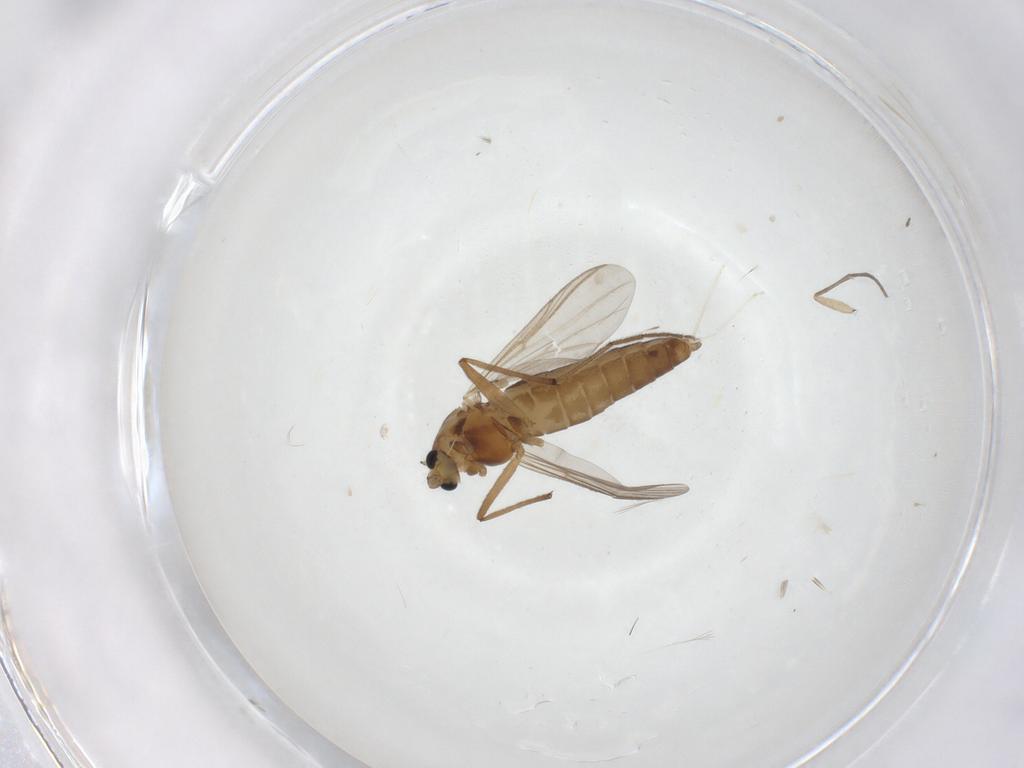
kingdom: Animalia
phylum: Arthropoda
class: Insecta
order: Diptera
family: Chironomidae
